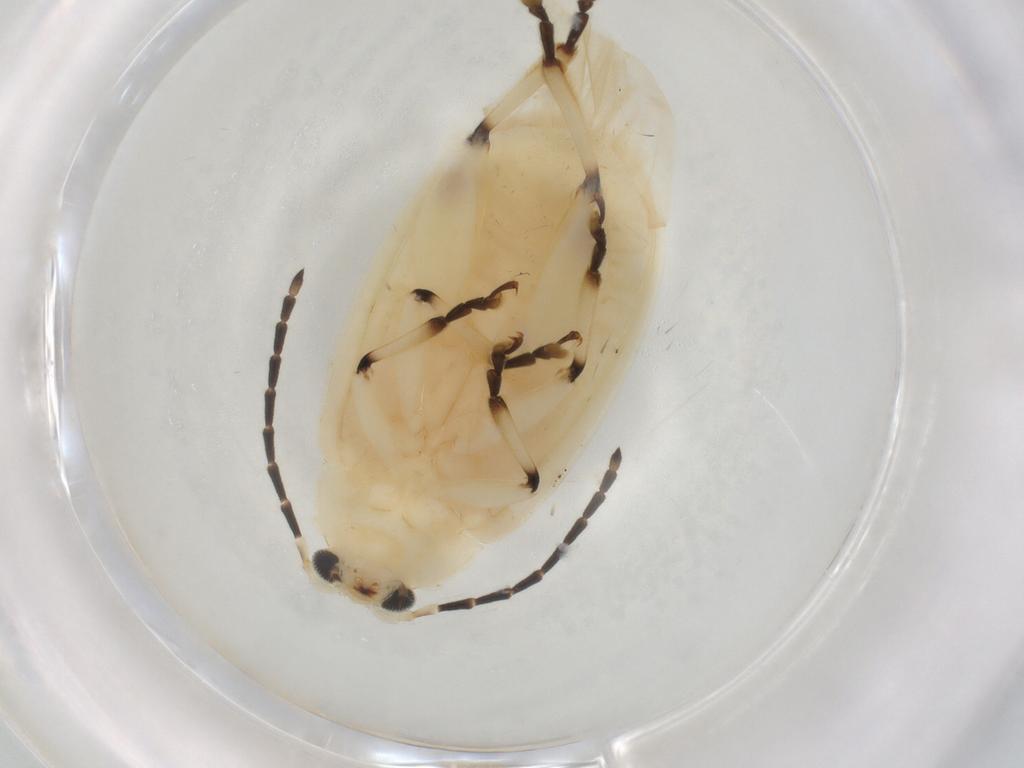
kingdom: Animalia
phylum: Arthropoda
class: Insecta
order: Coleoptera
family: Chrysomelidae
